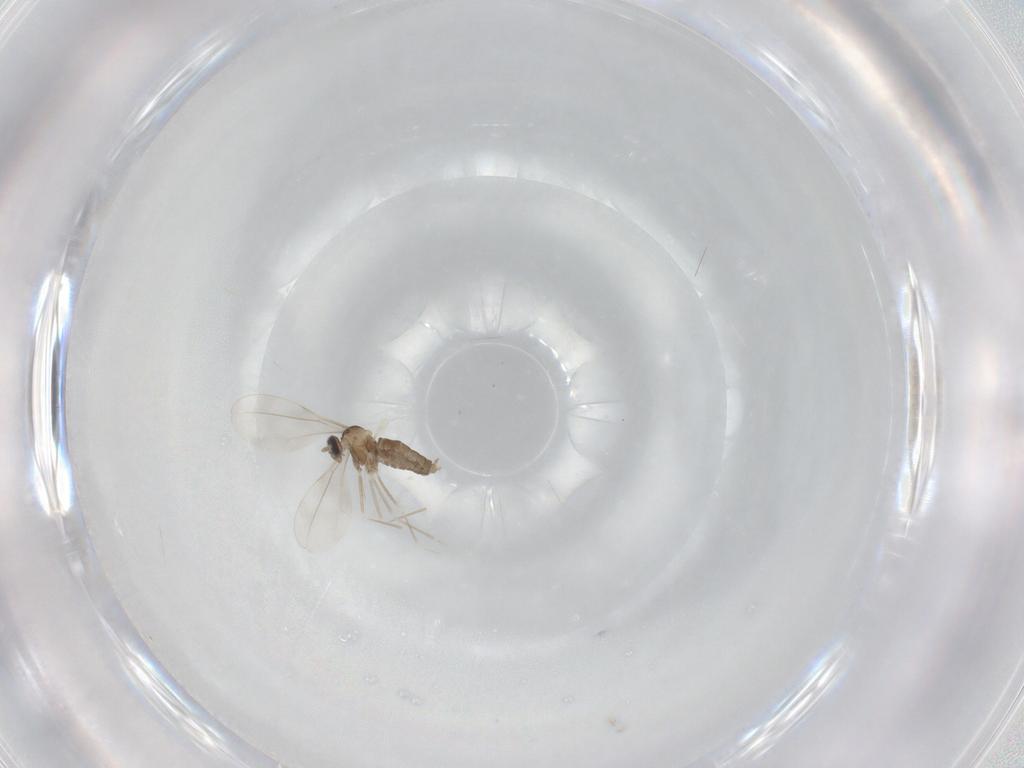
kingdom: Animalia
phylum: Arthropoda
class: Insecta
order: Diptera
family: Cecidomyiidae
